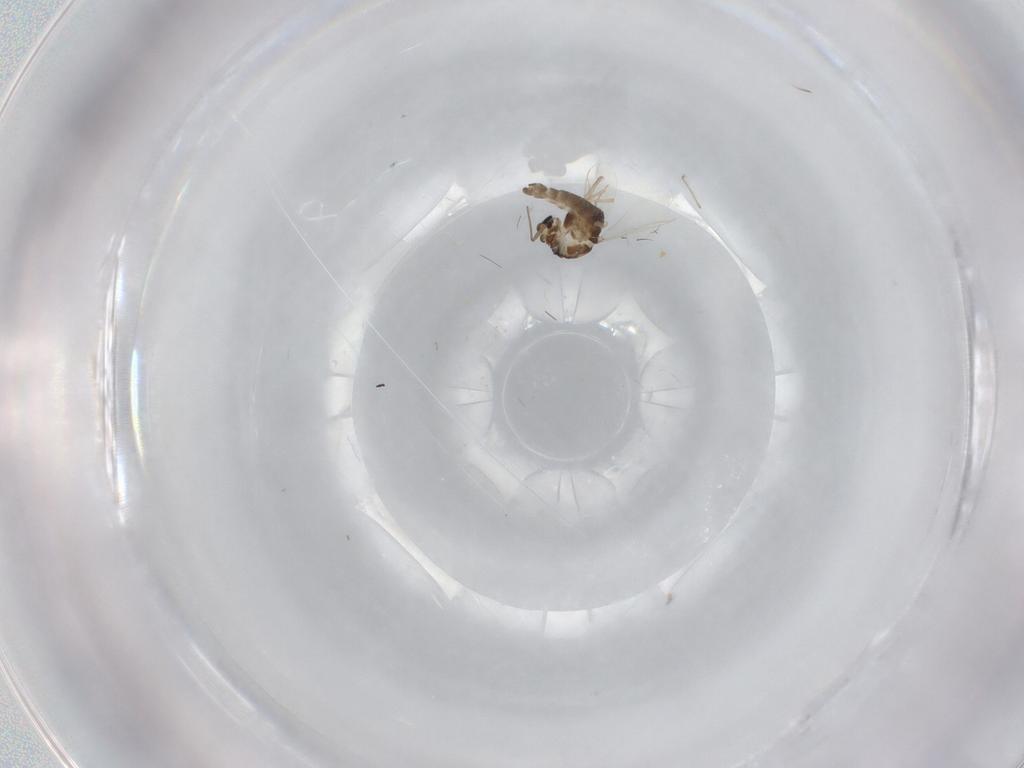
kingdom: Animalia
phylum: Arthropoda
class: Insecta
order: Diptera
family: Chironomidae
